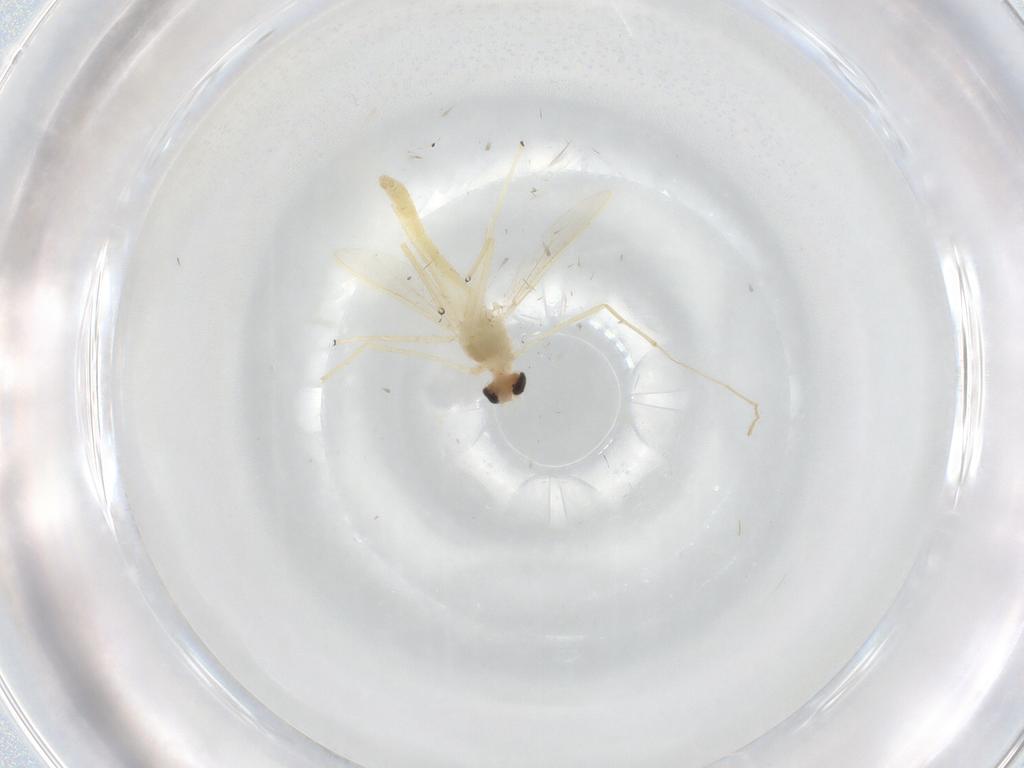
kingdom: Animalia
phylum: Arthropoda
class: Insecta
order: Diptera
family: Chironomidae
